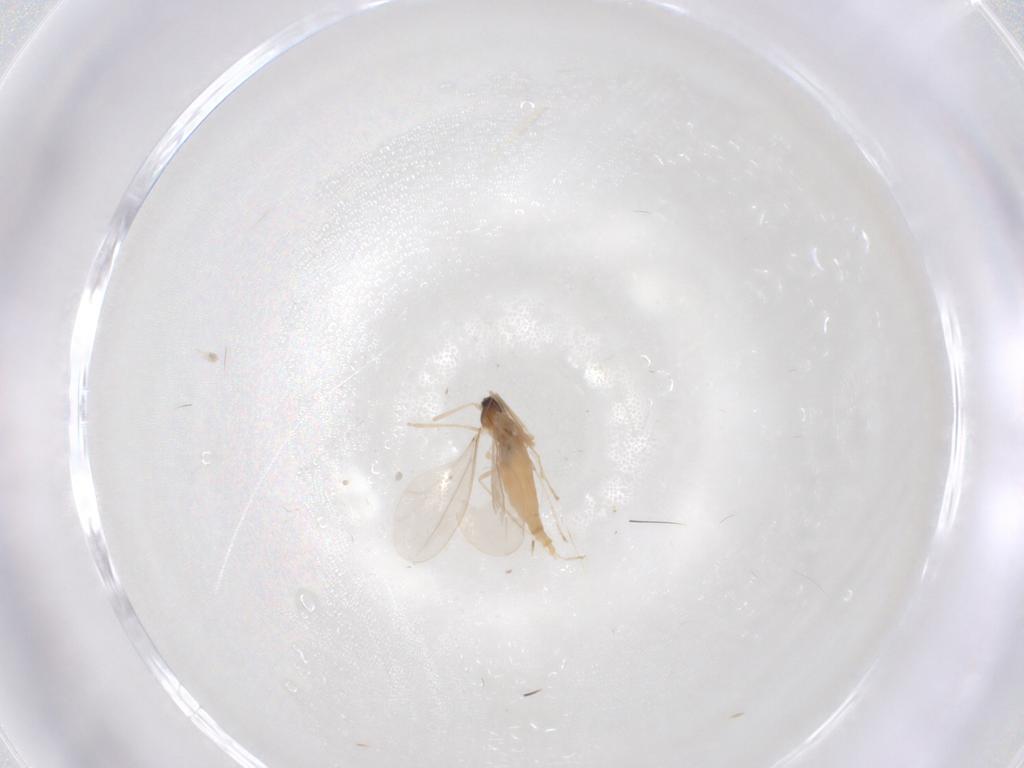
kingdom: Animalia
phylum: Arthropoda
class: Insecta
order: Diptera
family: Cecidomyiidae
